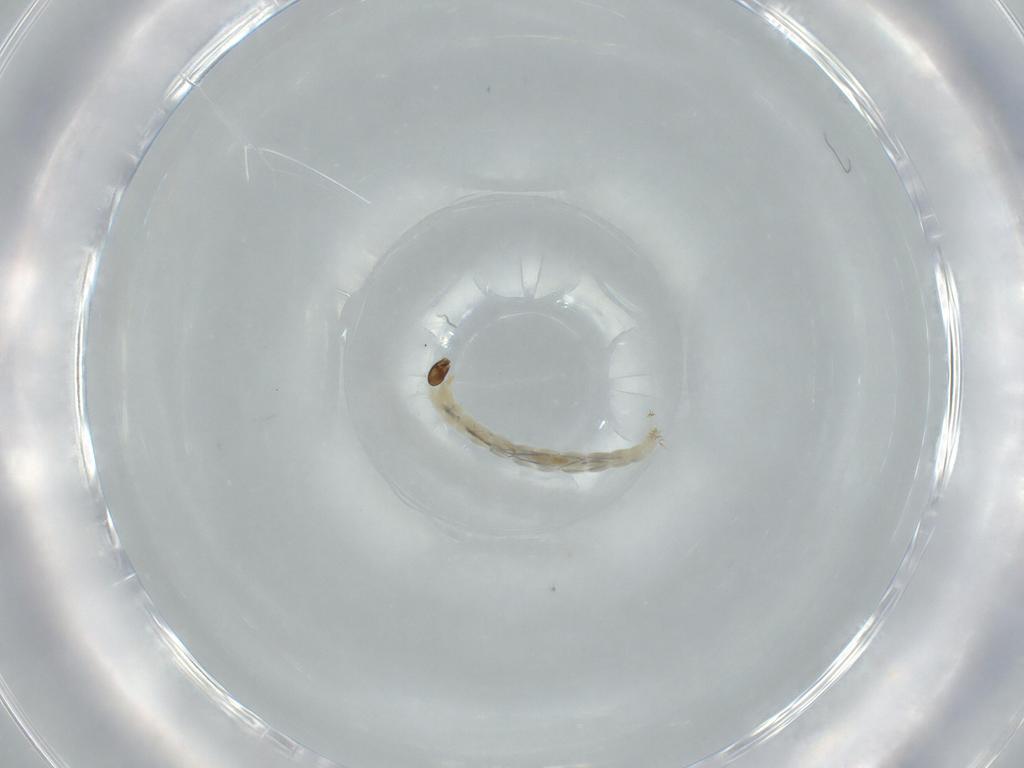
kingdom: Animalia
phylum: Arthropoda
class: Insecta
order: Diptera
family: Chironomidae
